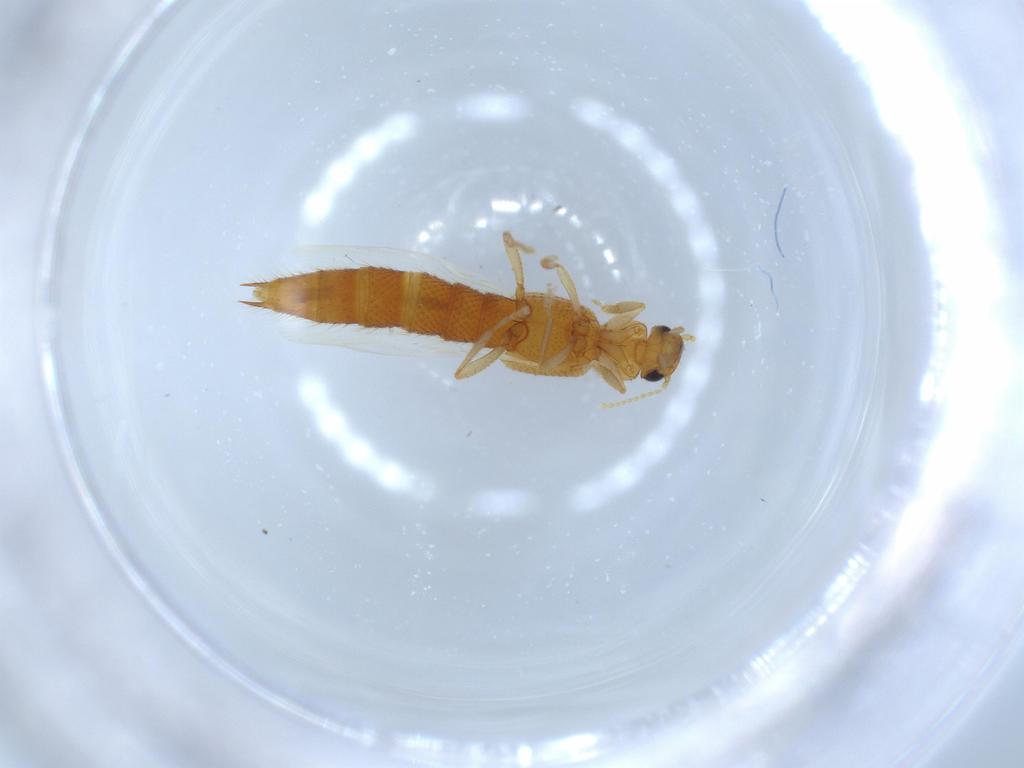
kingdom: Animalia
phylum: Arthropoda
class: Insecta
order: Coleoptera
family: Staphylinidae
